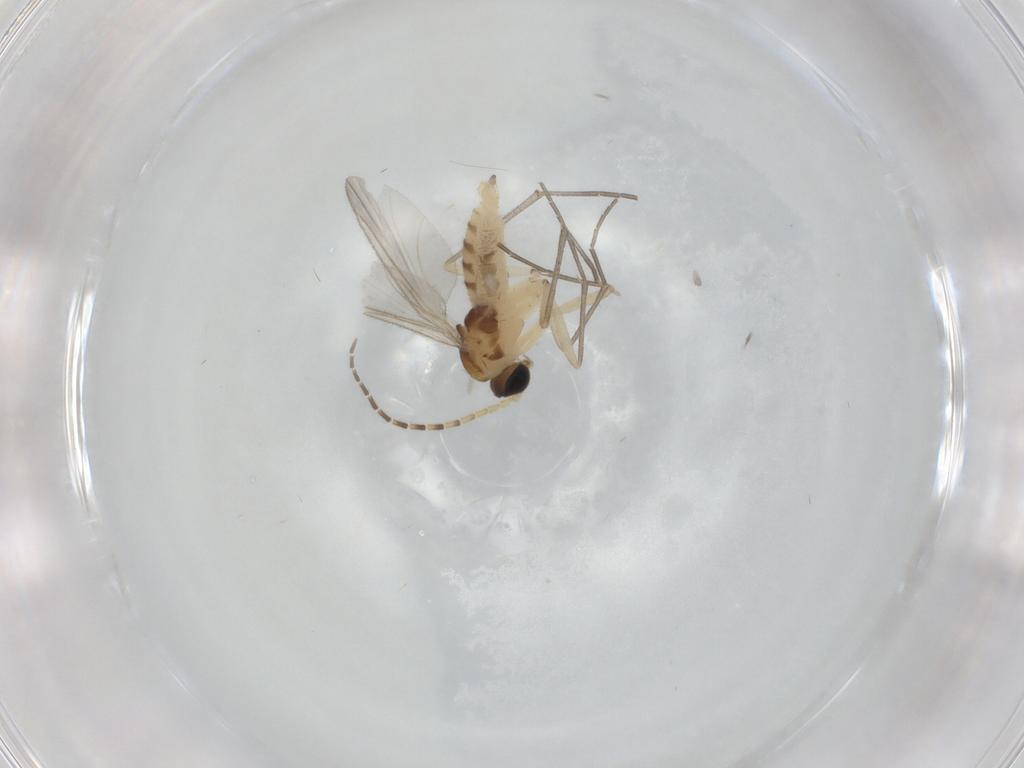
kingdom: Animalia
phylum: Arthropoda
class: Insecta
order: Diptera
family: Sciaridae
